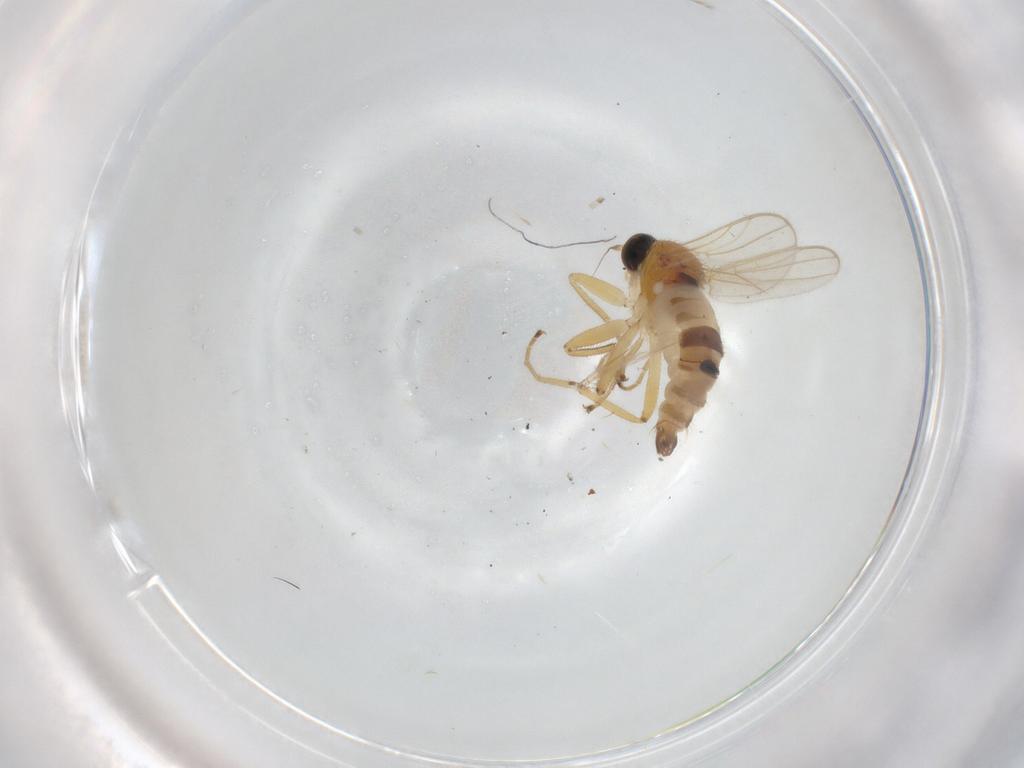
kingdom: Animalia
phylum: Arthropoda
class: Insecta
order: Diptera
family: Hybotidae
